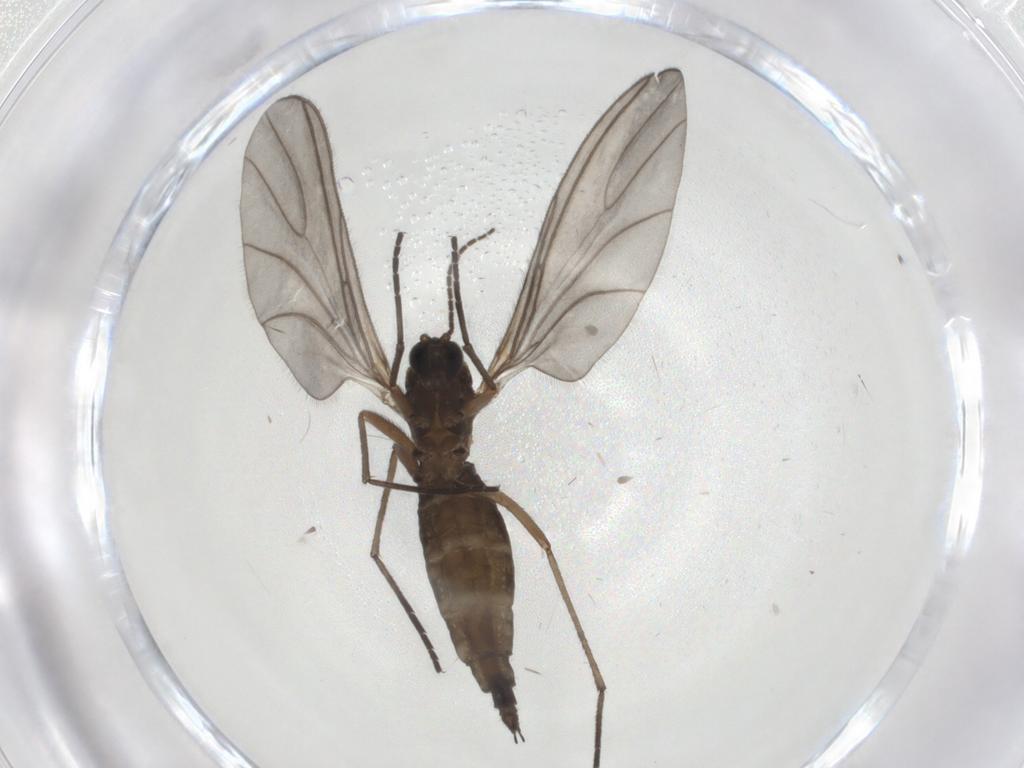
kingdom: Animalia
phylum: Arthropoda
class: Insecta
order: Diptera
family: Sciaridae
